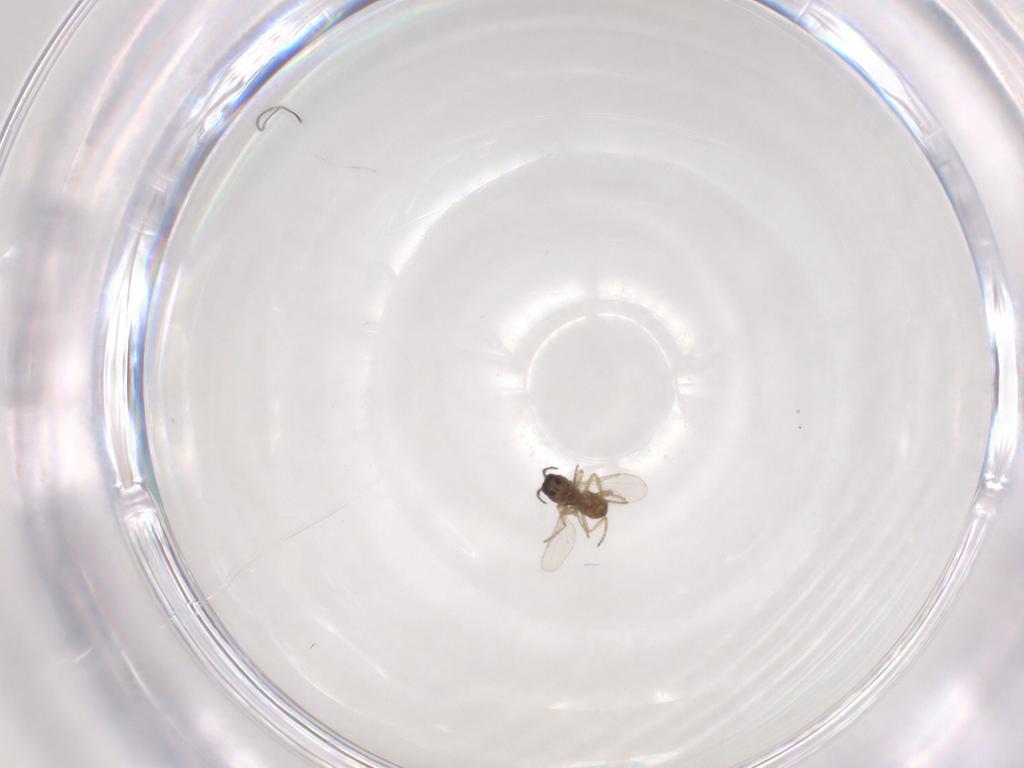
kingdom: Animalia
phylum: Arthropoda
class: Insecta
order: Diptera
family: Ceratopogonidae
